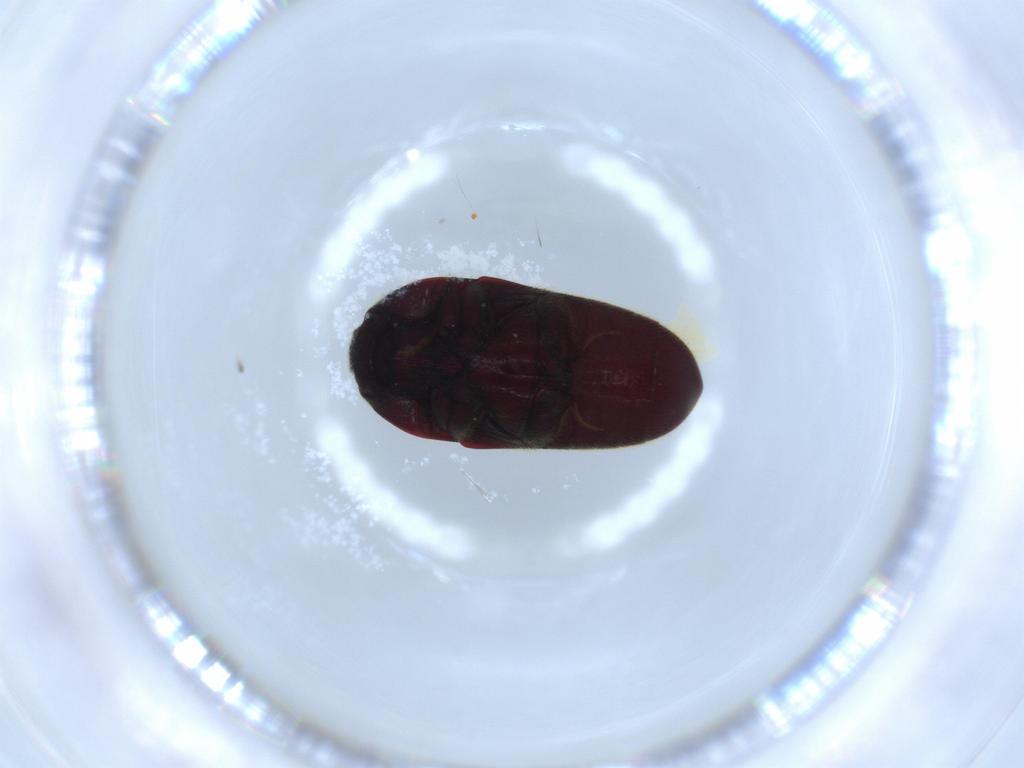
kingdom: Animalia
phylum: Arthropoda
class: Insecta
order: Coleoptera
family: Throscidae
